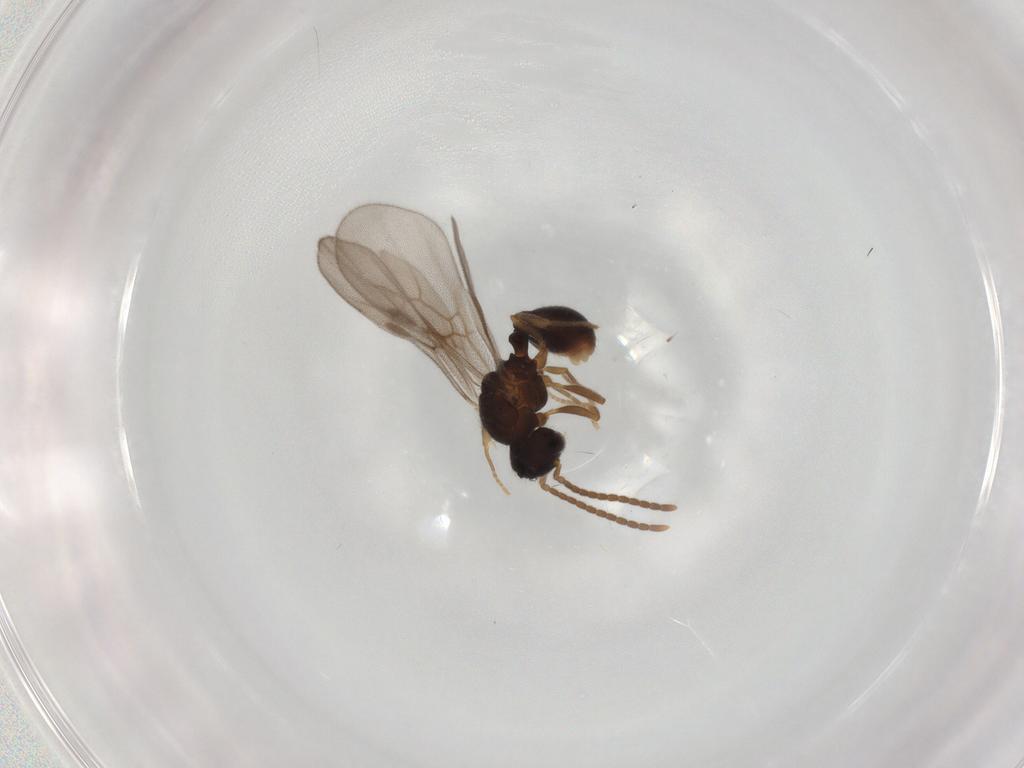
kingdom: Animalia
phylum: Arthropoda
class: Insecta
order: Hymenoptera
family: Formicidae
